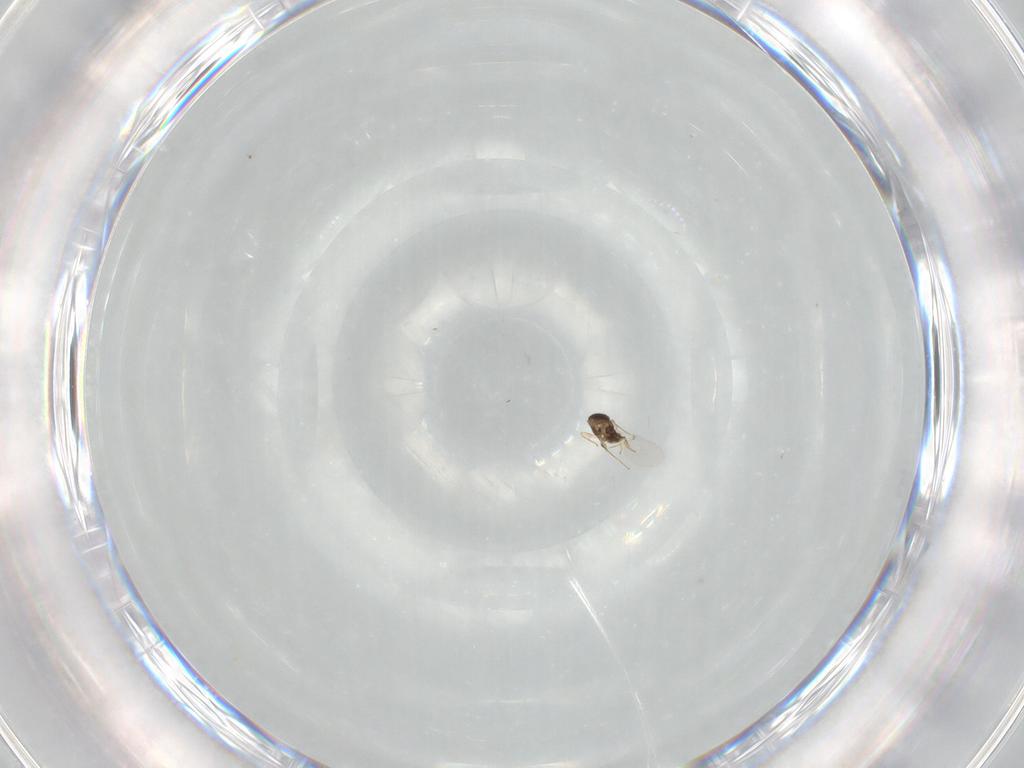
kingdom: Animalia
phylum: Arthropoda
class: Insecta
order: Hymenoptera
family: Encyrtidae
